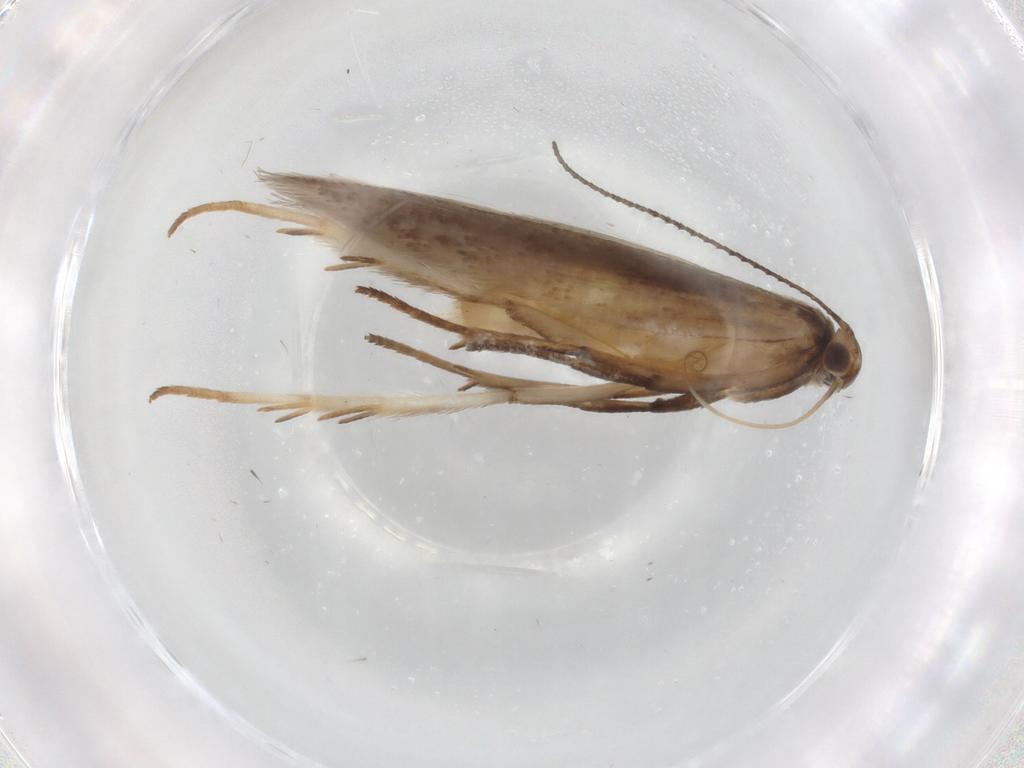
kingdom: Animalia
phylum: Arthropoda
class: Insecta
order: Lepidoptera
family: Gelechiidae
